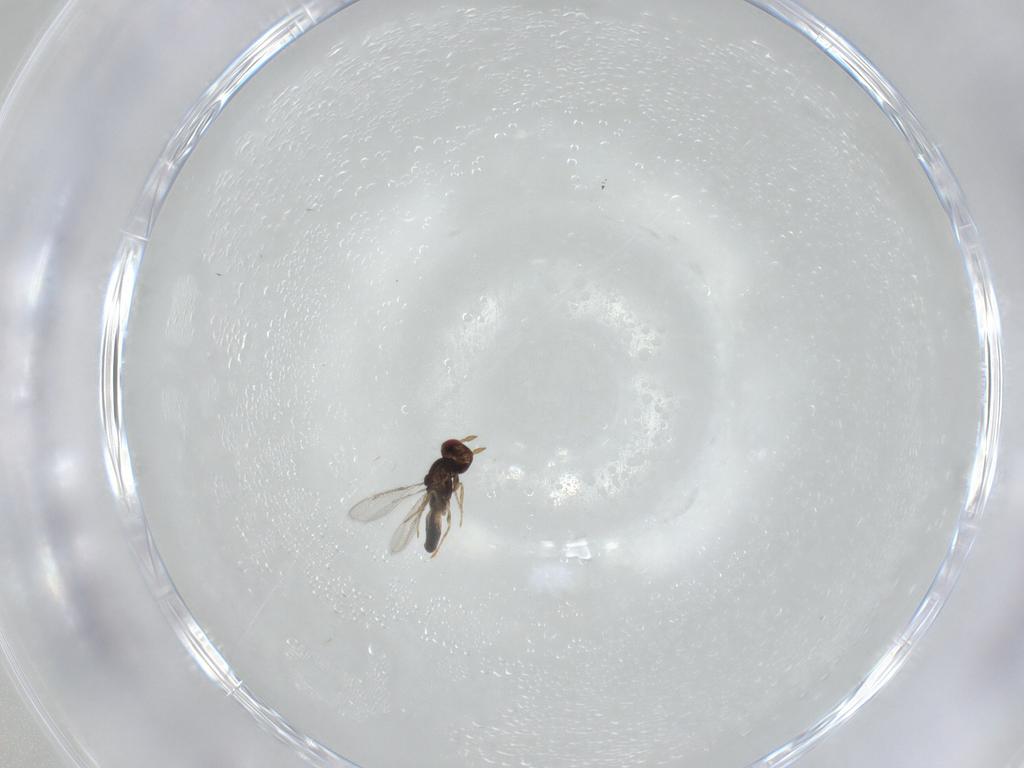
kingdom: Animalia
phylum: Arthropoda
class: Insecta
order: Hymenoptera
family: Eulophidae
